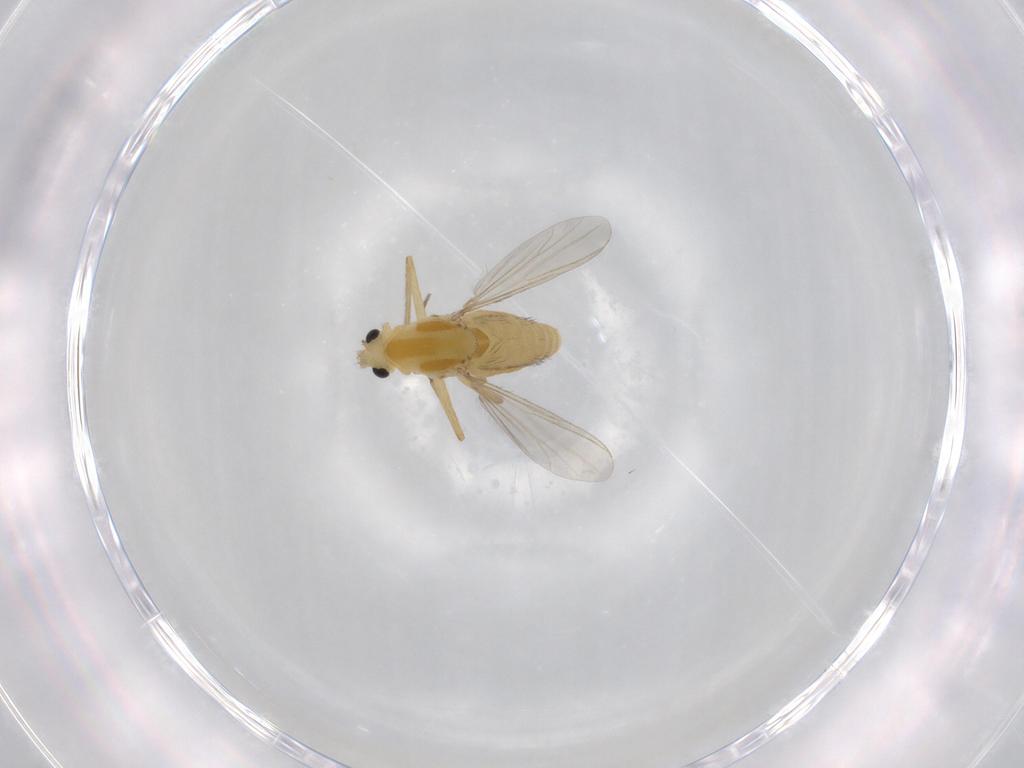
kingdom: Animalia
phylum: Arthropoda
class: Insecta
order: Diptera
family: Chironomidae
